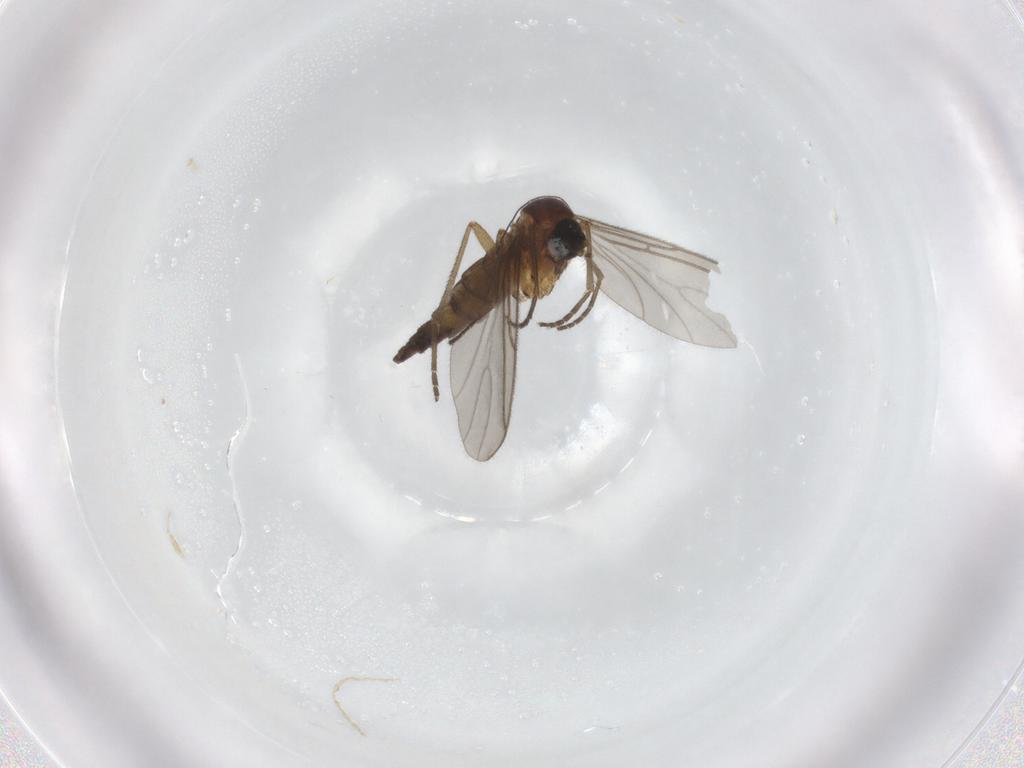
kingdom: Animalia
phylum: Arthropoda
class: Insecta
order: Diptera
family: Sciaridae
